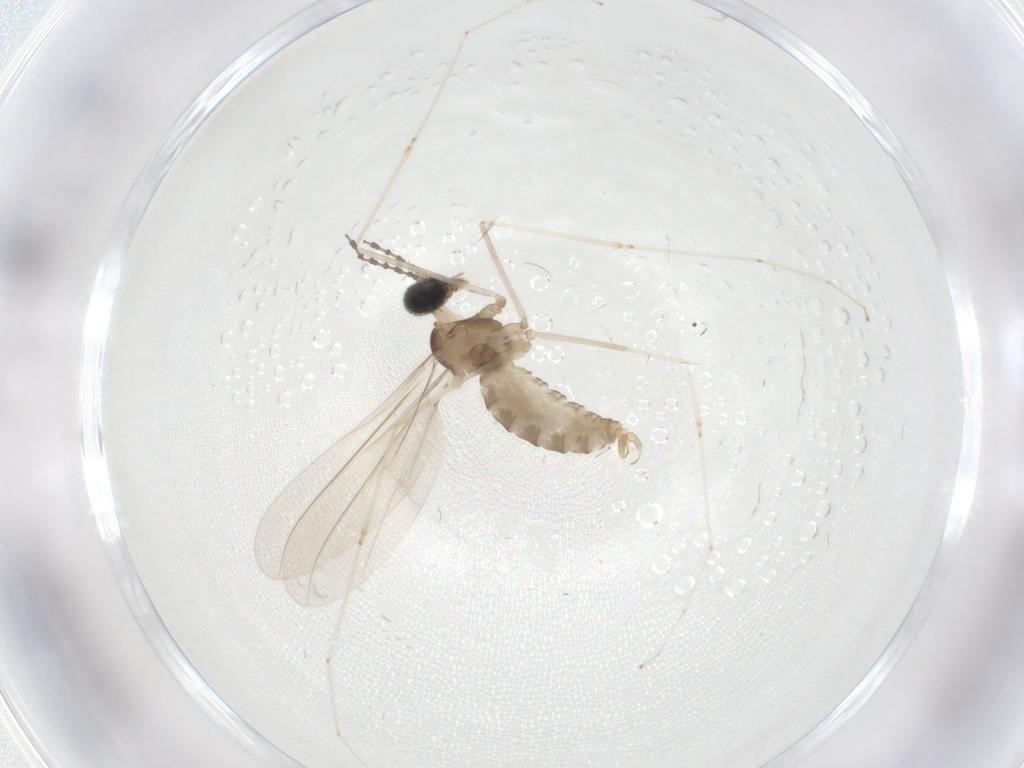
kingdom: Animalia
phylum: Arthropoda
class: Insecta
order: Diptera
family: Cecidomyiidae
